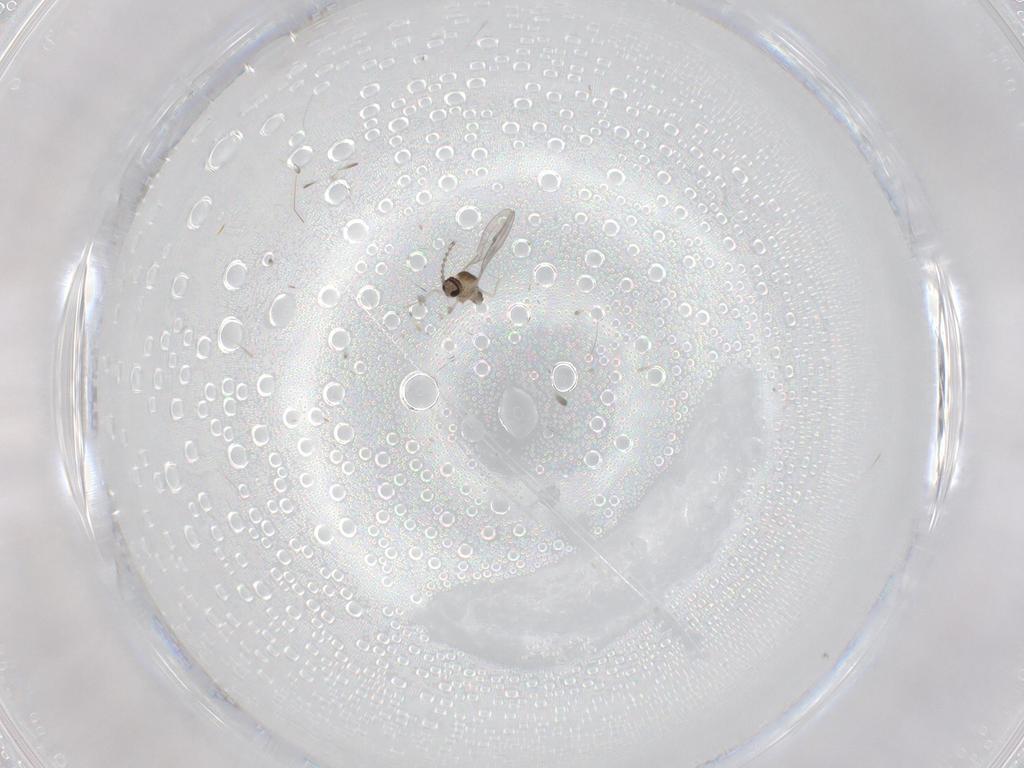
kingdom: Animalia
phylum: Arthropoda
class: Insecta
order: Diptera
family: Cecidomyiidae
